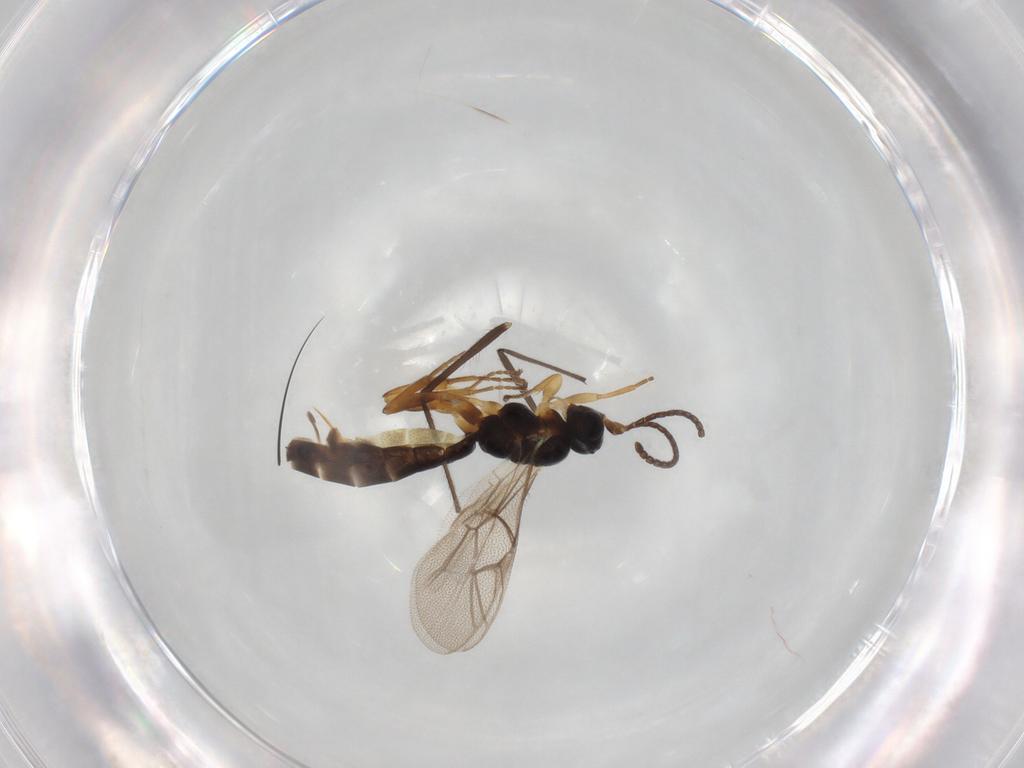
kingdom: Animalia
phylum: Arthropoda
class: Insecta
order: Hymenoptera
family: Ichneumonidae
